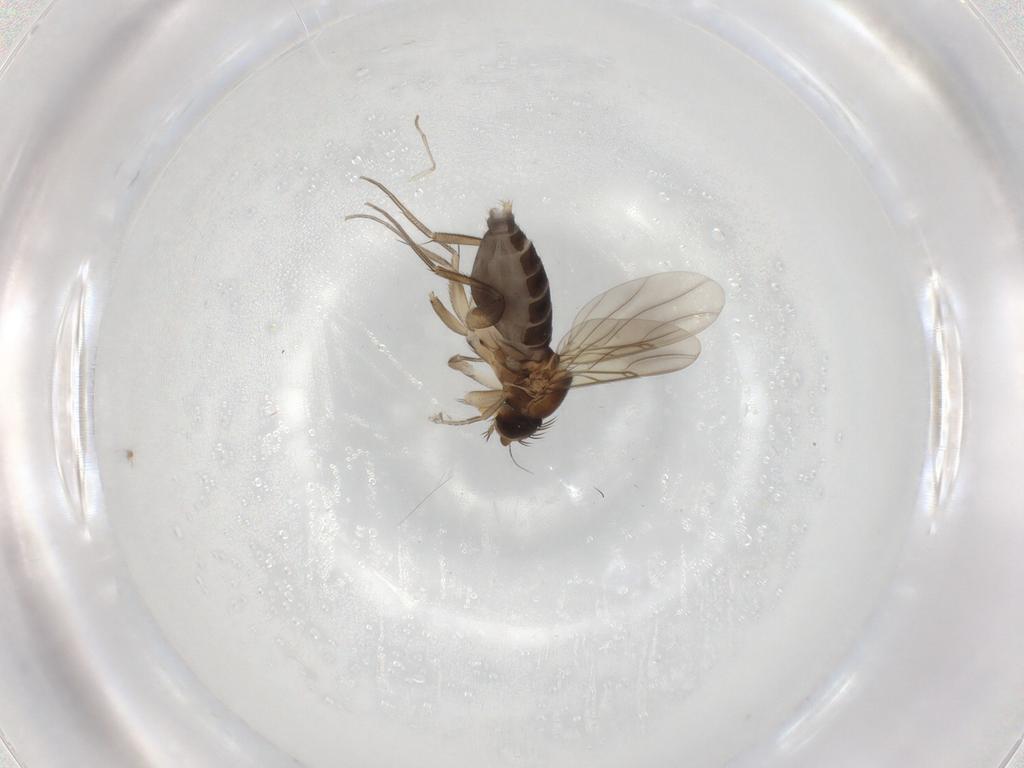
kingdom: Animalia
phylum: Arthropoda
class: Insecta
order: Diptera
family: Phoridae
